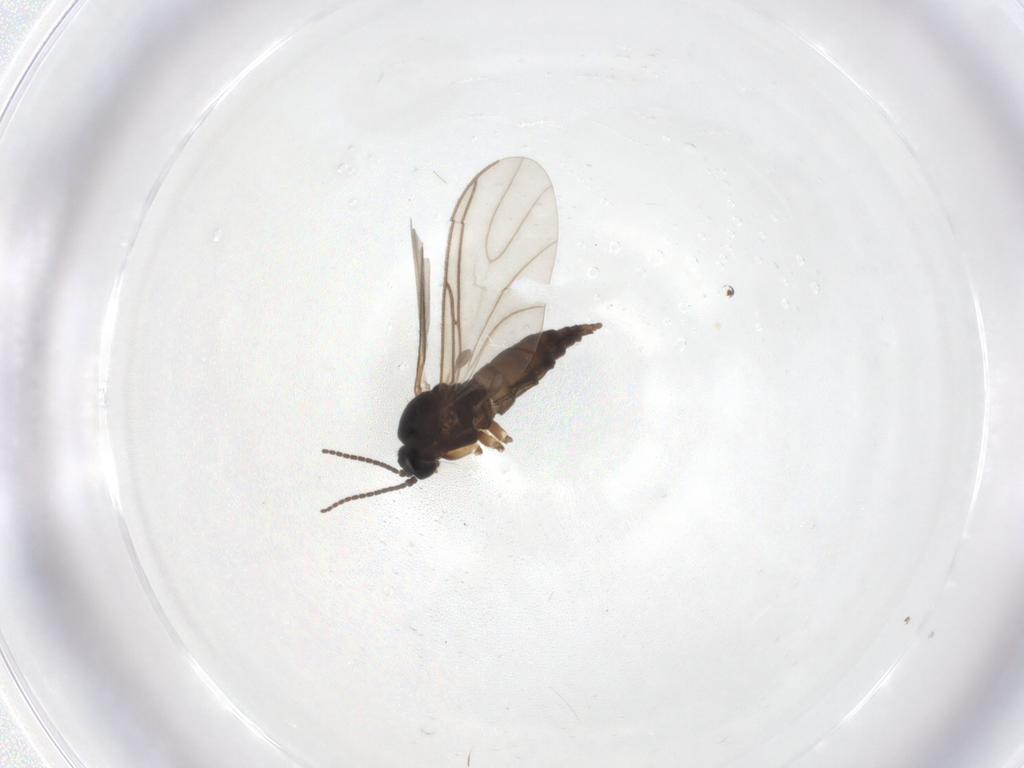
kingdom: Animalia
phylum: Arthropoda
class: Insecta
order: Diptera
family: Sciaridae
